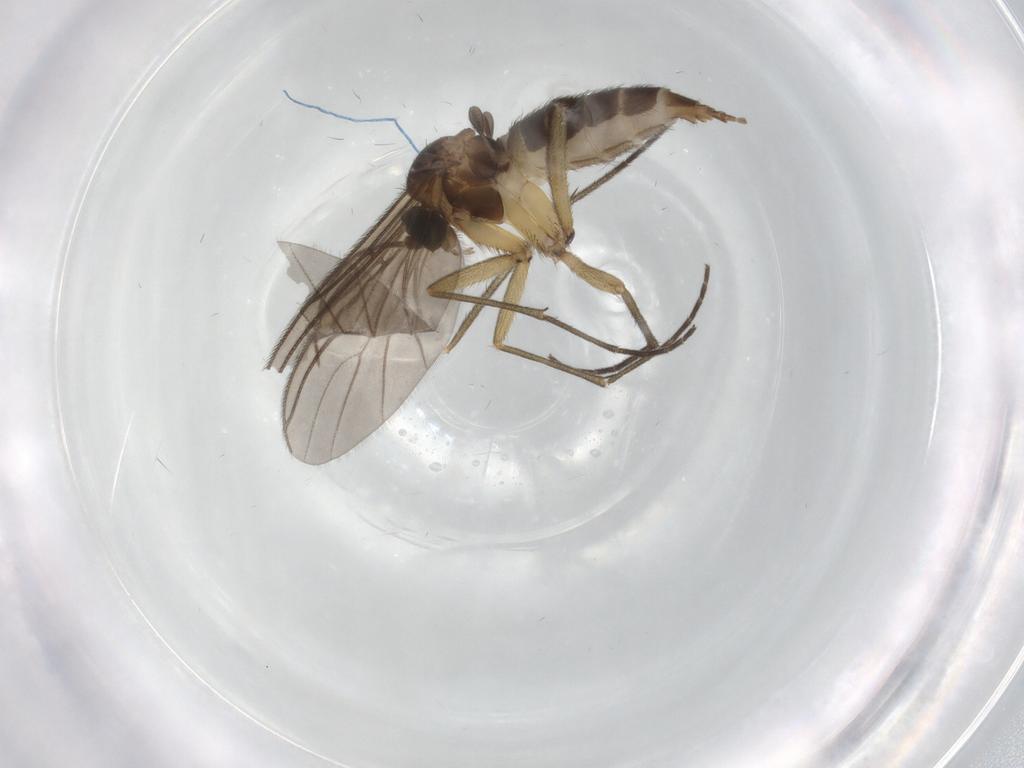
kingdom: Animalia
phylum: Arthropoda
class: Insecta
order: Diptera
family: Sciaridae
